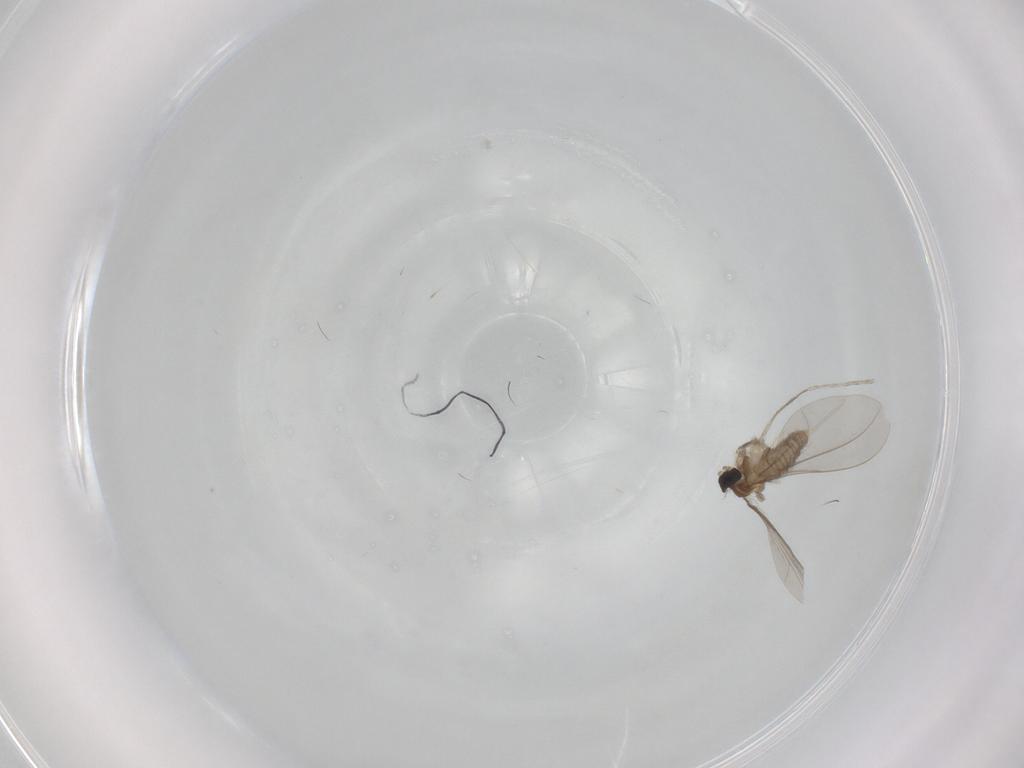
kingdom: Animalia
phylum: Arthropoda
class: Insecta
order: Diptera
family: Cecidomyiidae
